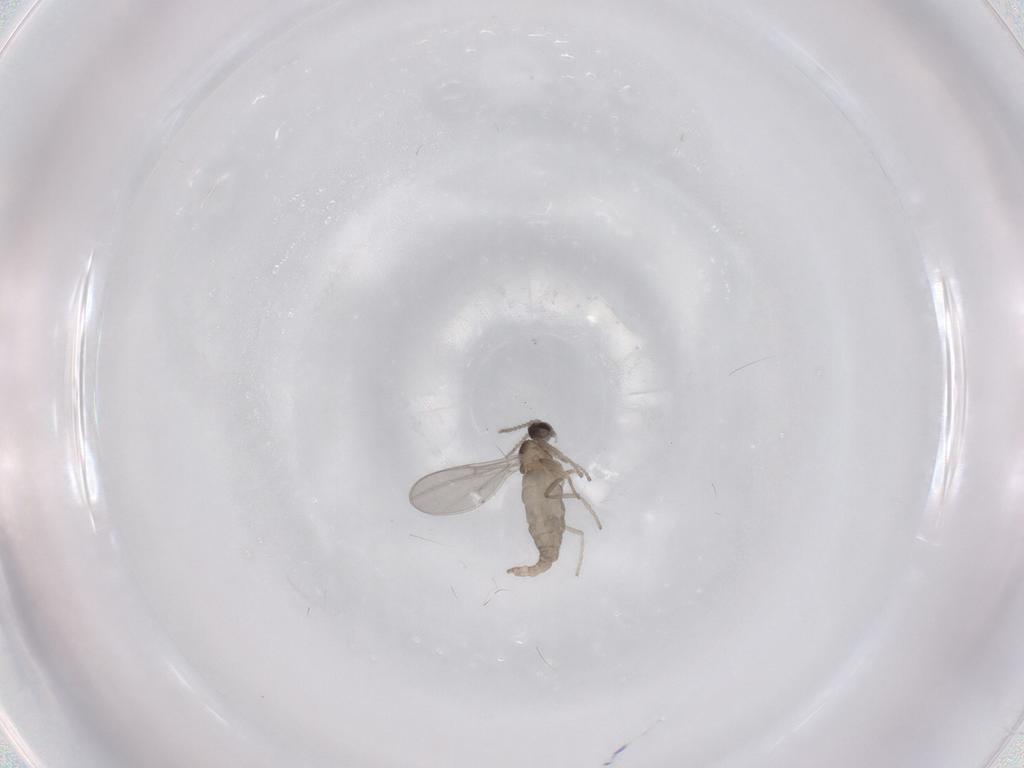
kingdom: Animalia
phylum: Arthropoda
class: Insecta
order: Diptera
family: Cecidomyiidae
